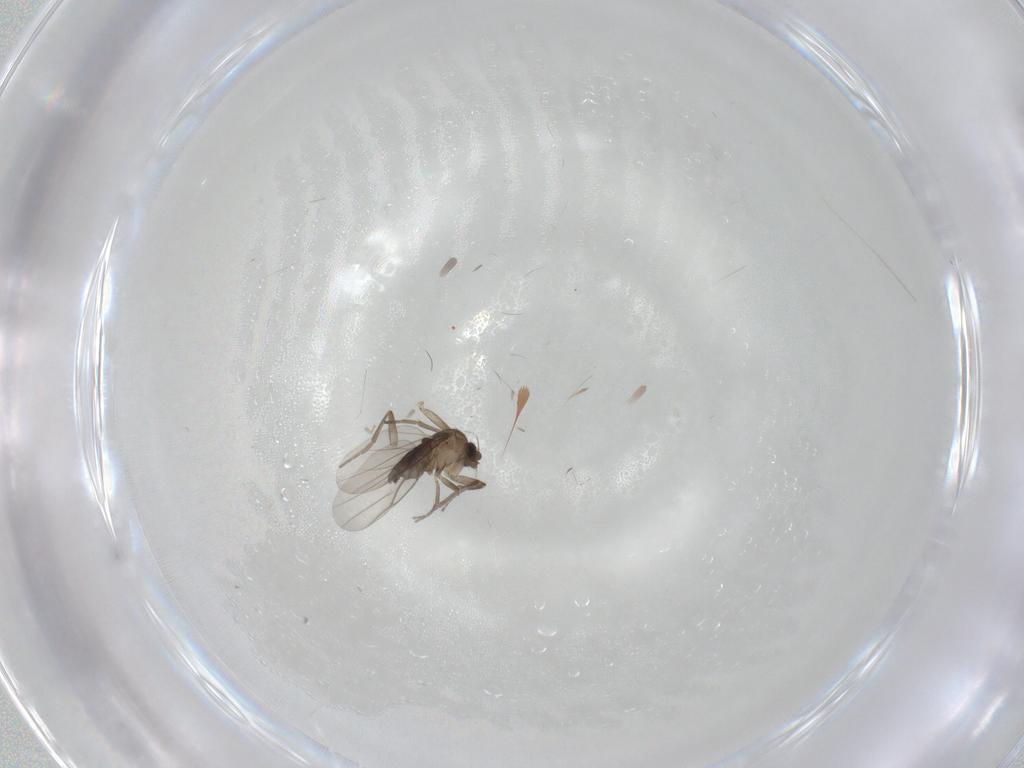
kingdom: Animalia
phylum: Arthropoda
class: Insecta
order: Diptera
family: Phoridae
